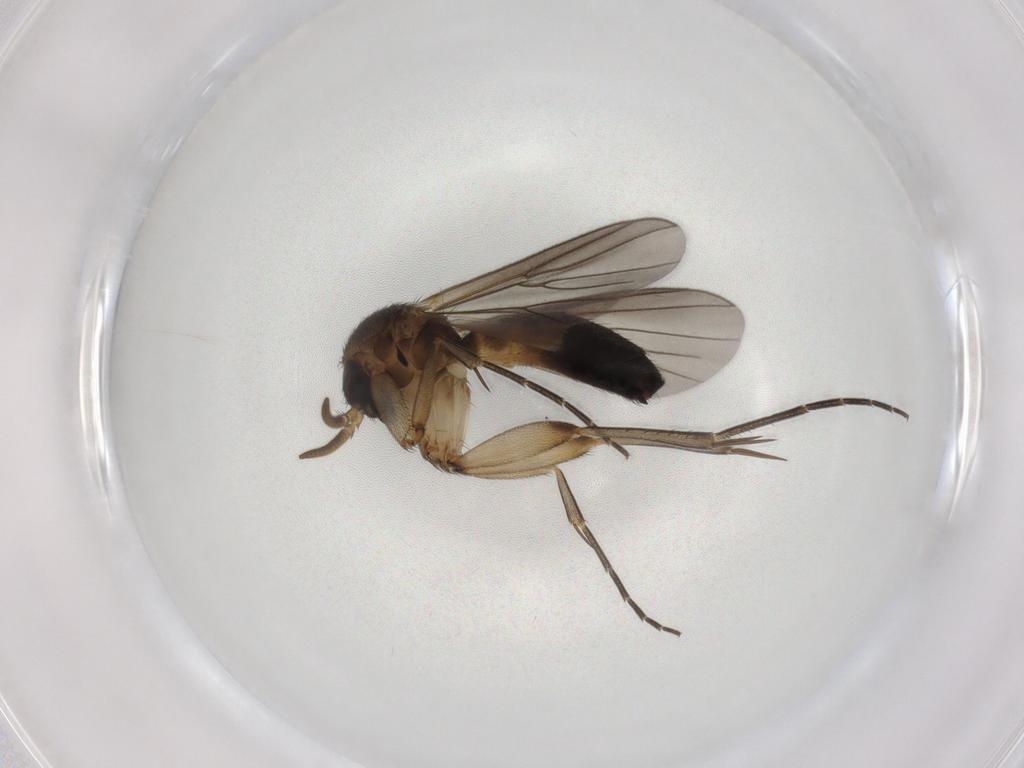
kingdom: Animalia
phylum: Arthropoda
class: Insecta
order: Diptera
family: Mycetophilidae
